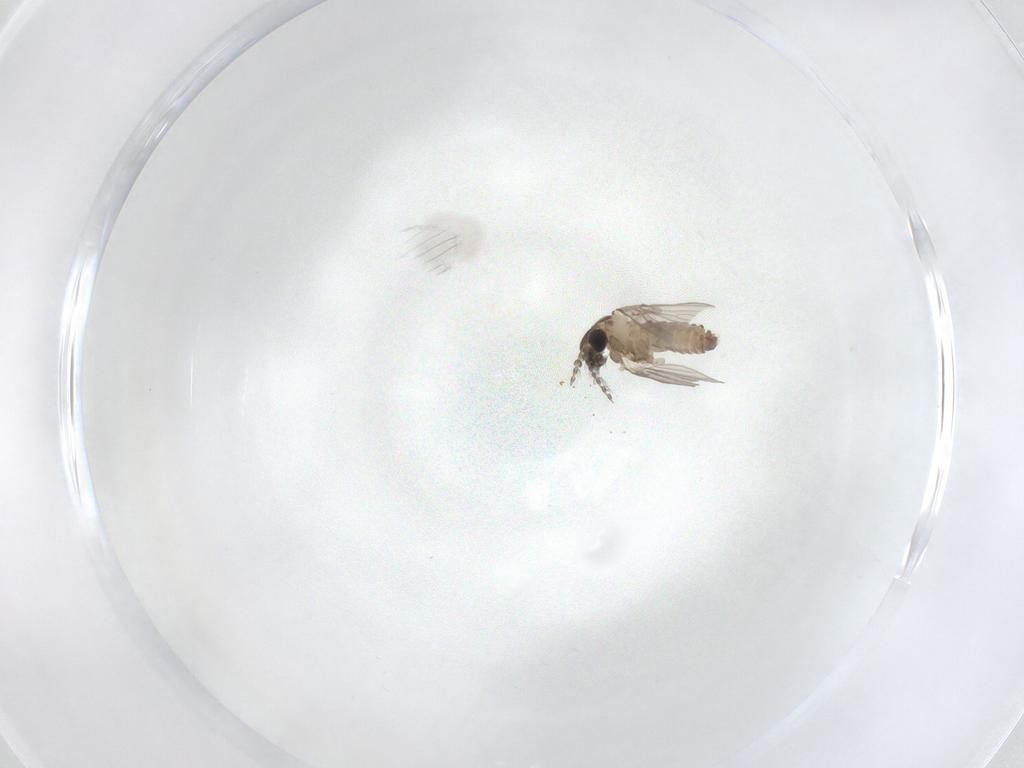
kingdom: Animalia
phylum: Arthropoda
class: Insecta
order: Diptera
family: Psychodidae
